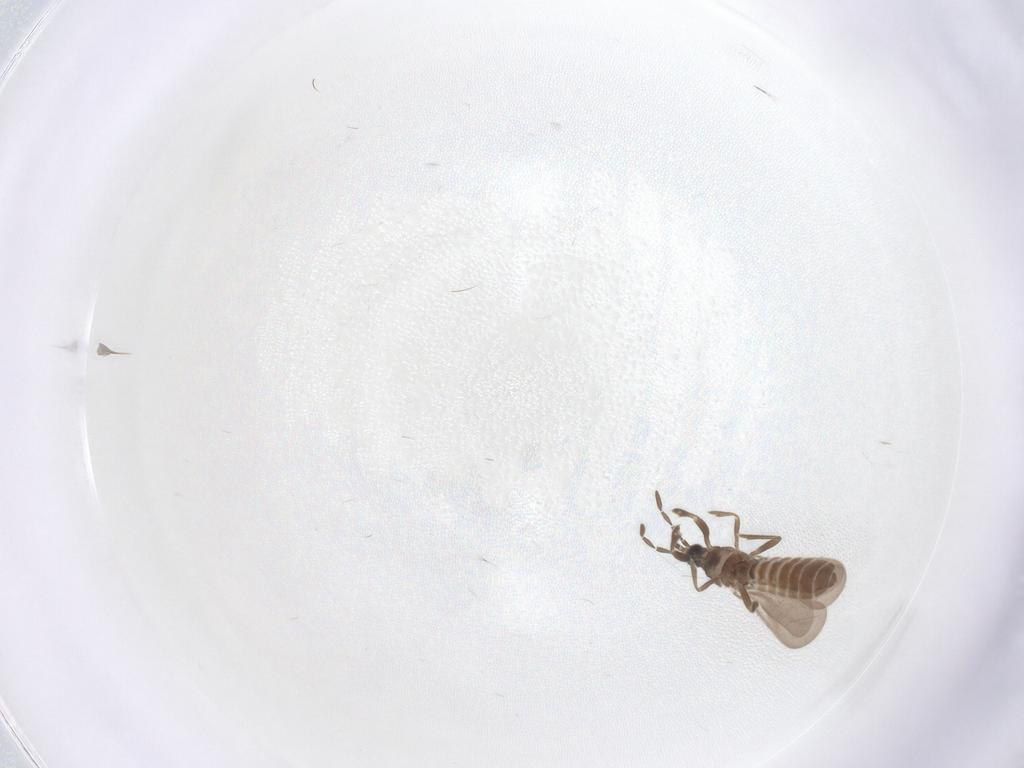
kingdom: Animalia
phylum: Arthropoda
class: Insecta
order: Hemiptera
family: Enicocephalidae
